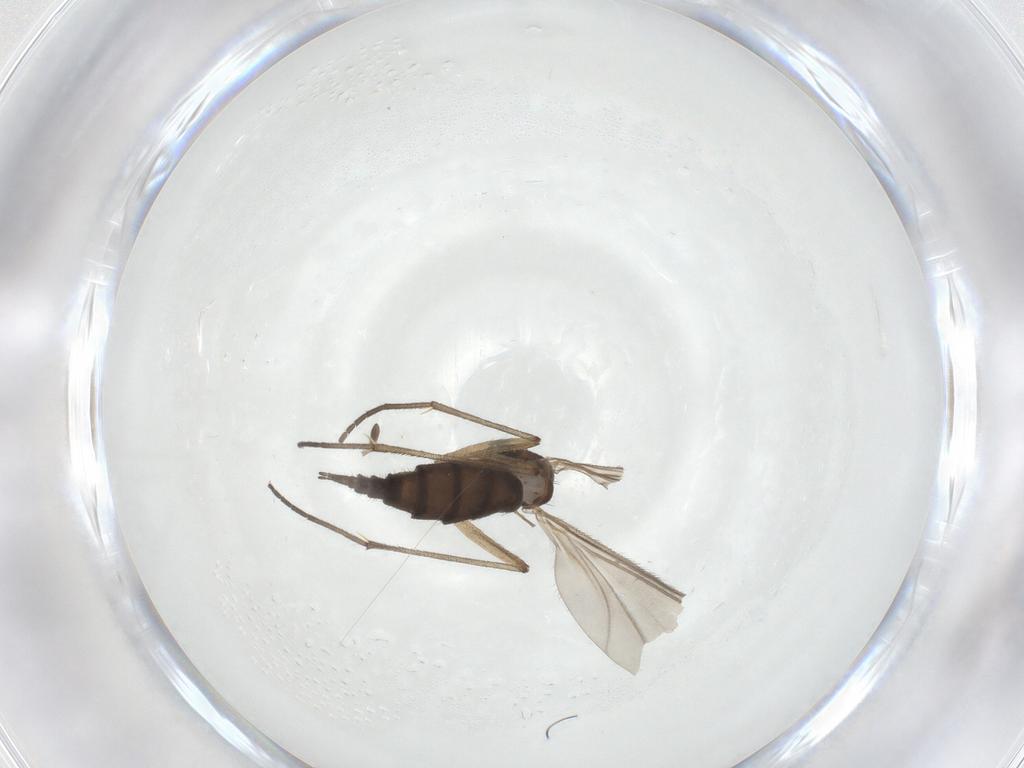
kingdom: Animalia
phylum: Arthropoda
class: Insecta
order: Diptera
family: Sciaridae
